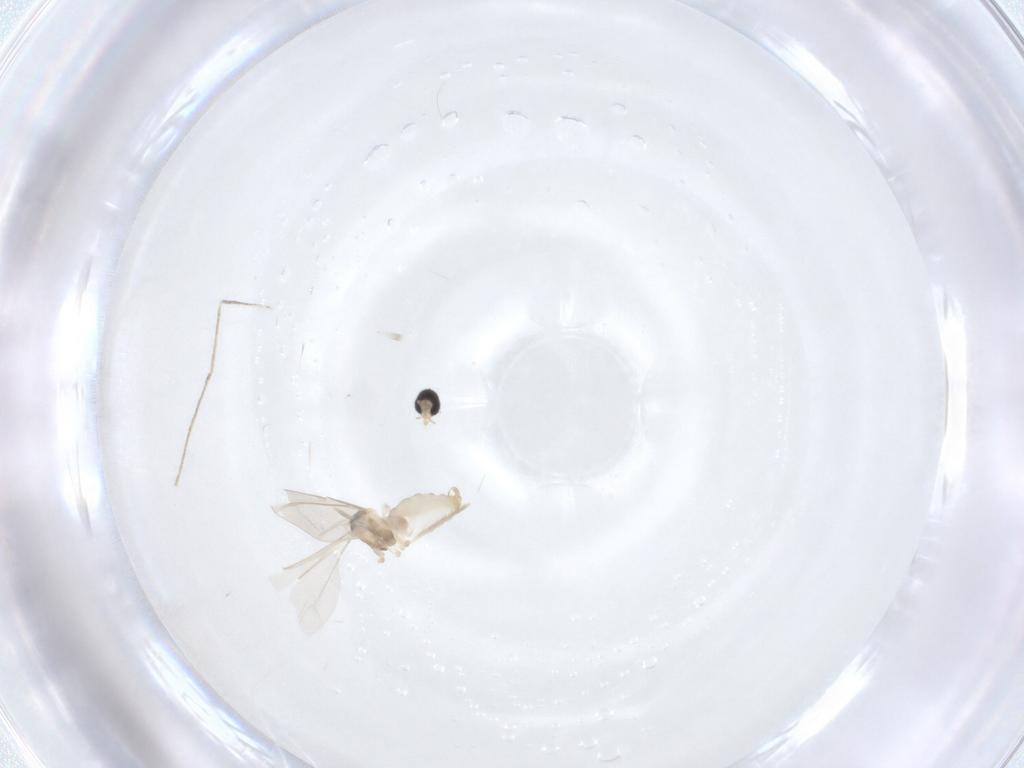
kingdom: Animalia
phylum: Arthropoda
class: Insecta
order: Diptera
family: Cecidomyiidae
